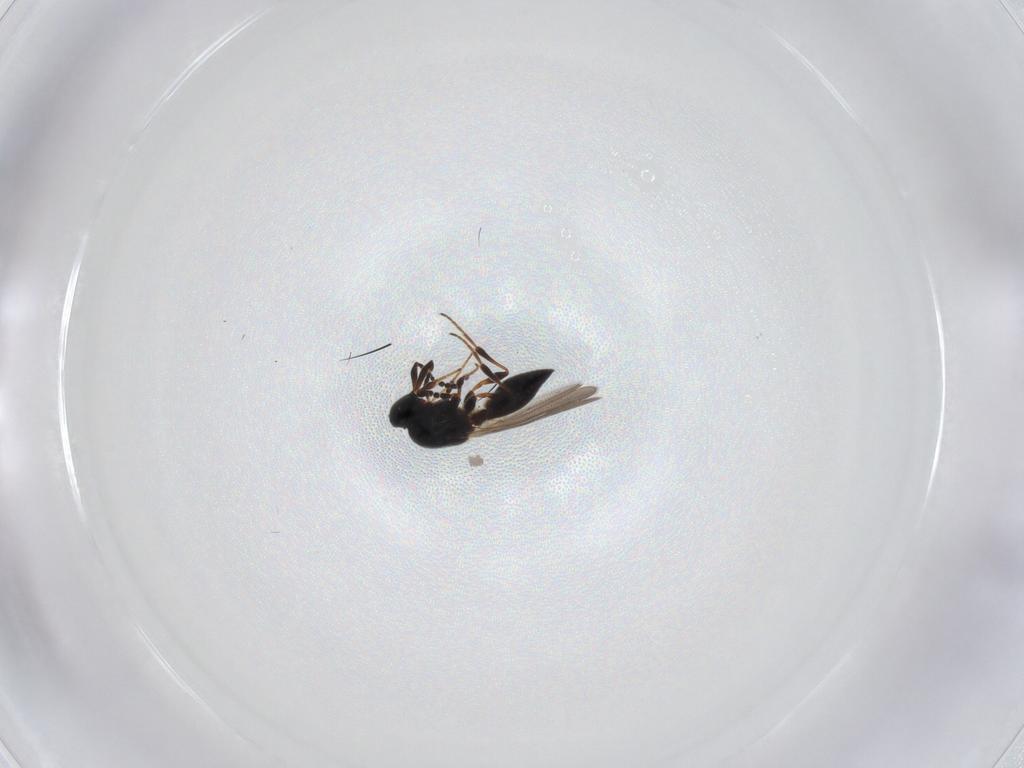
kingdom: Animalia
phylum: Arthropoda
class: Insecta
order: Hymenoptera
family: Platygastridae
